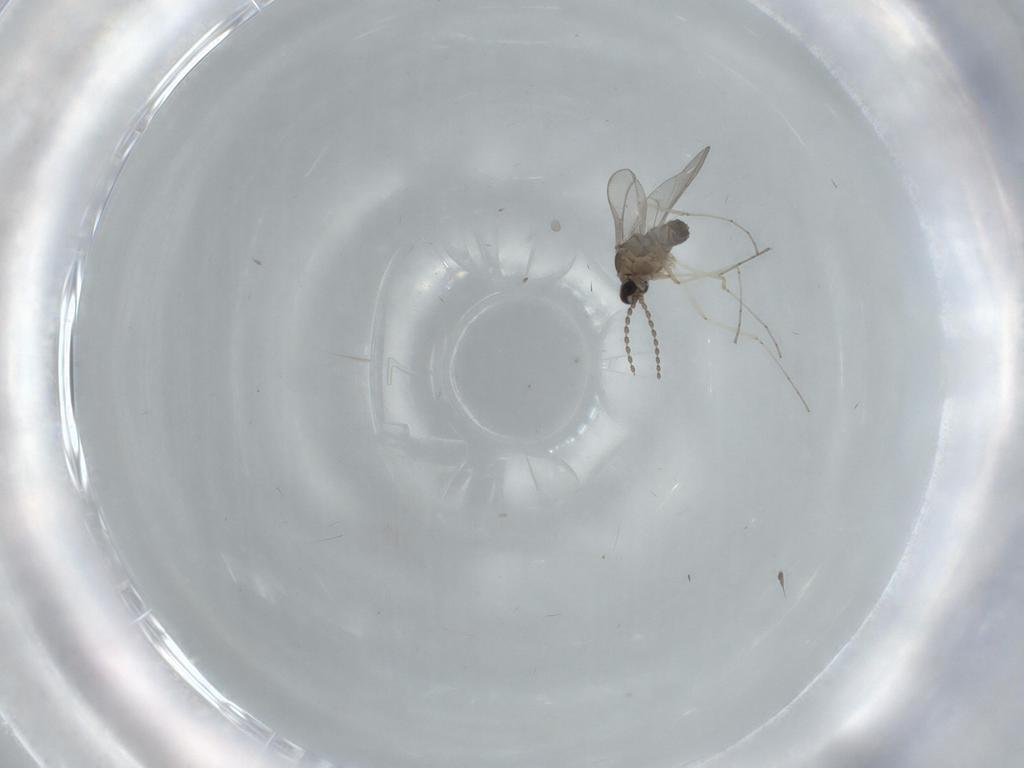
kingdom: Animalia
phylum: Arthropoda
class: Insecta
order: Diptera
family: Cecidomyiidae
